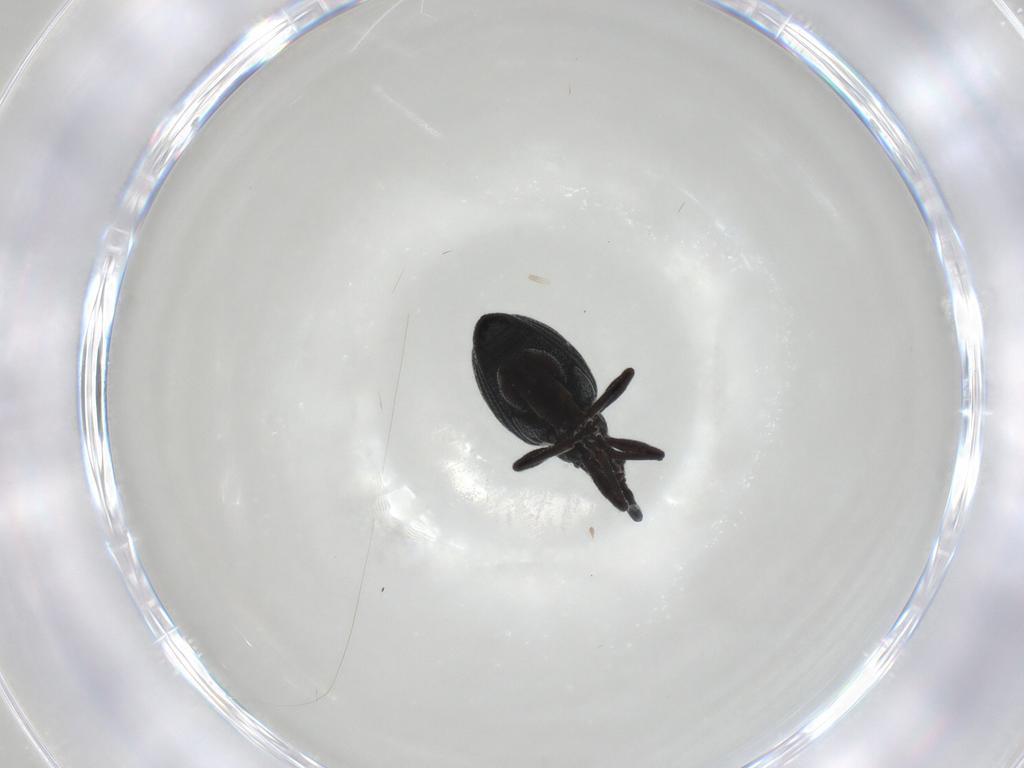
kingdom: Animalia
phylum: Arthropoda
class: Insecta
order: Coleoptera
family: Brentidae
